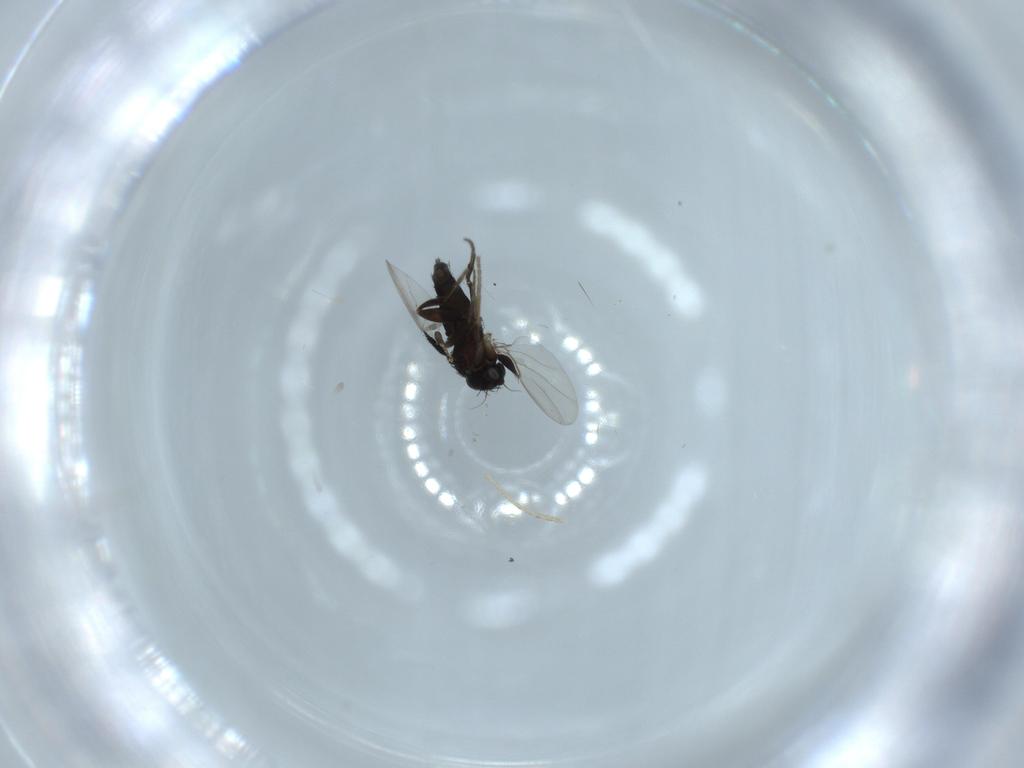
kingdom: Animalia
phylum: Arthropoda
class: Insecta
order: Diptera
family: Phoridae
